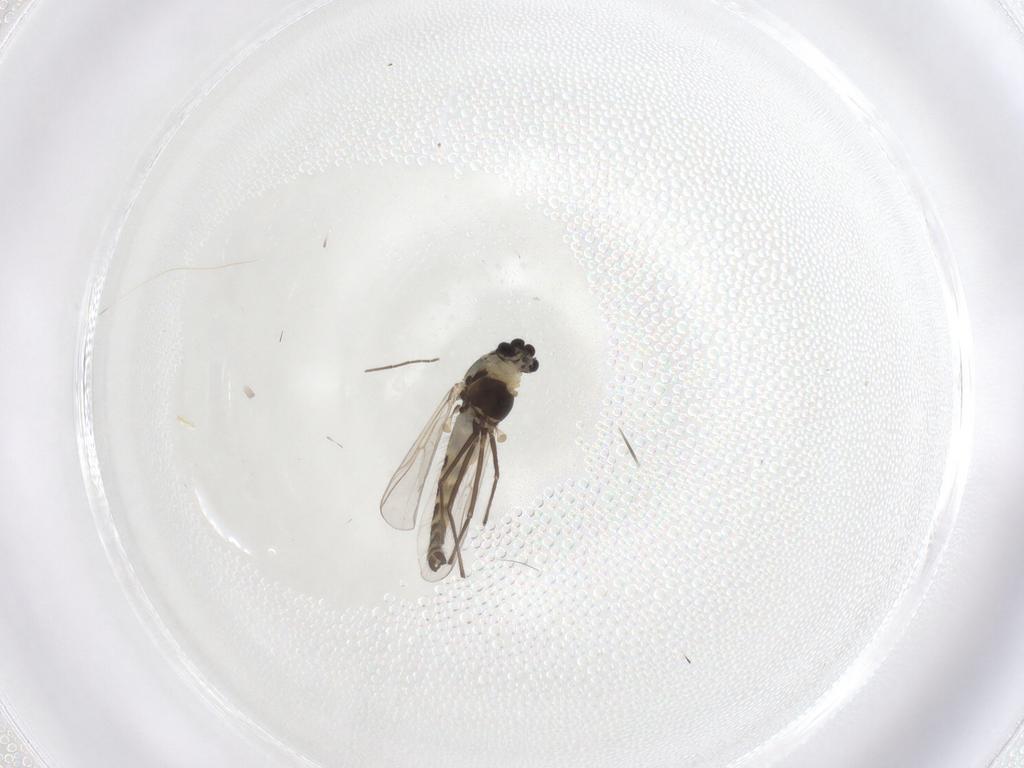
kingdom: Animalia
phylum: Arthropoda
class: Insecta
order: Diptera
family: Chironomidae
